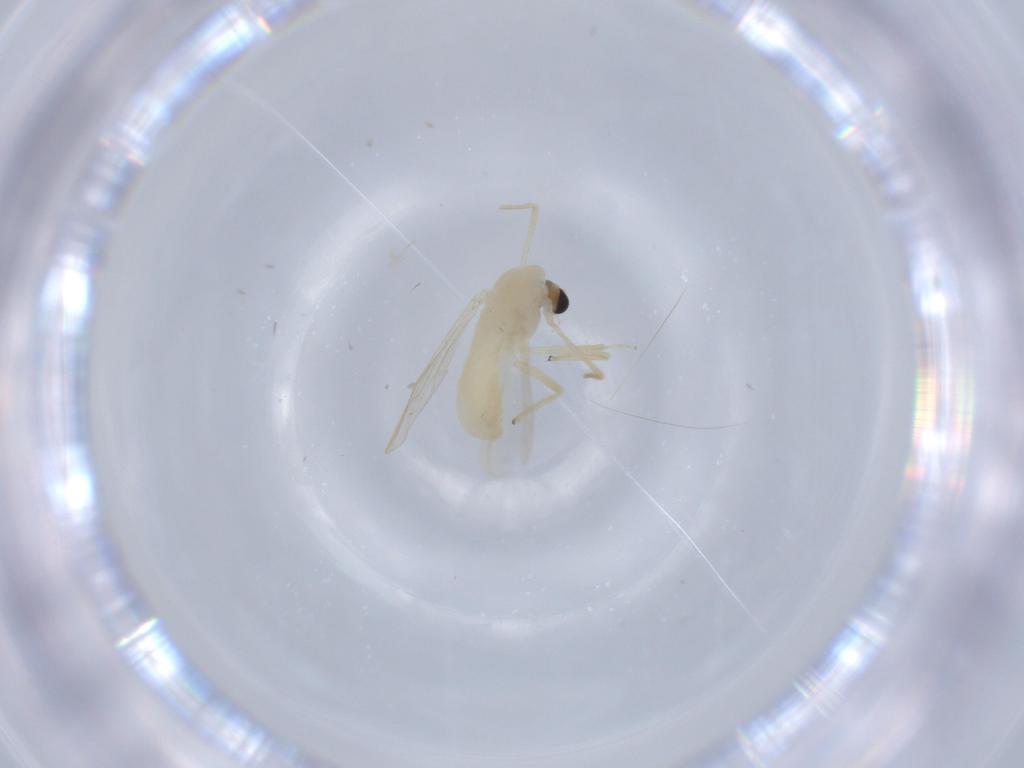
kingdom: Animalia
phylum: Arthropoda
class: Insecta
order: Diptera
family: Chironomidae
